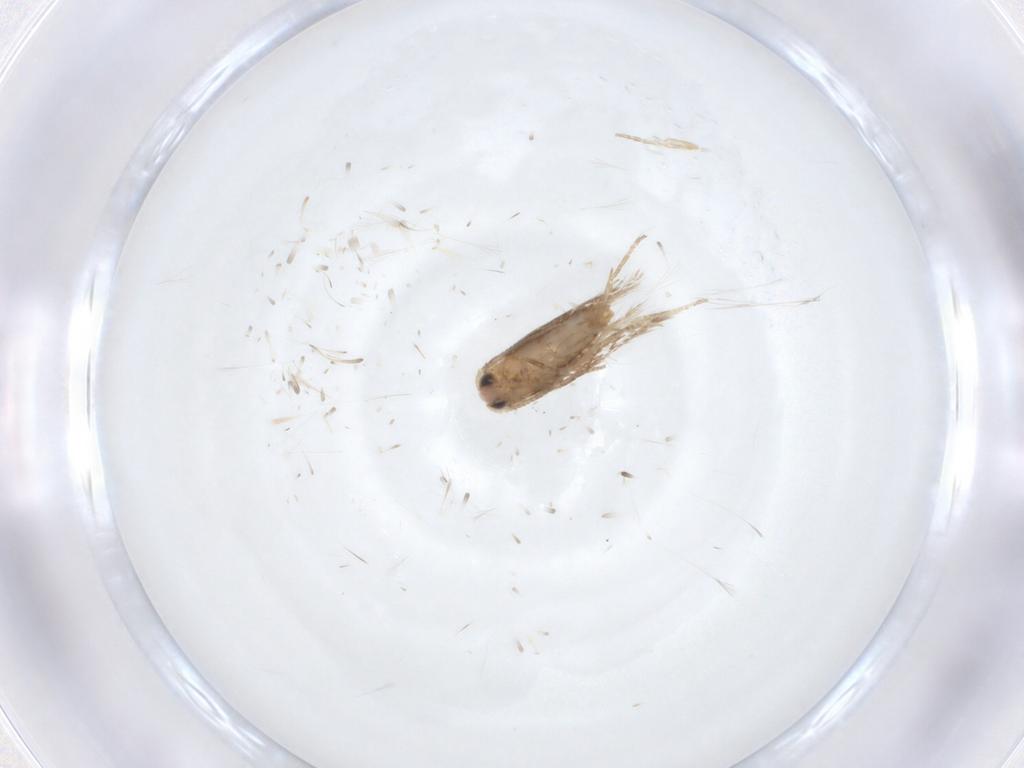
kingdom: Animalia
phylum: Arthropoda
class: Insecta
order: Lepidoptera
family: Nepticulidae
